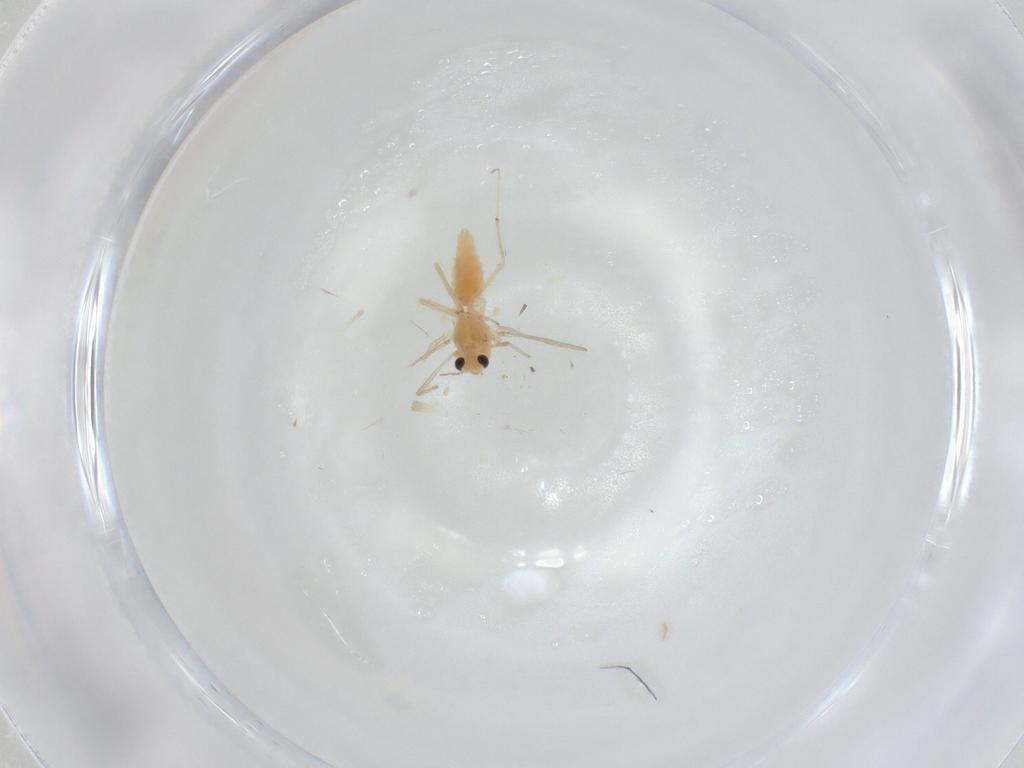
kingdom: Animalia
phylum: Arthropoda
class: Insecta
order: Diptera
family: Chironomidae
